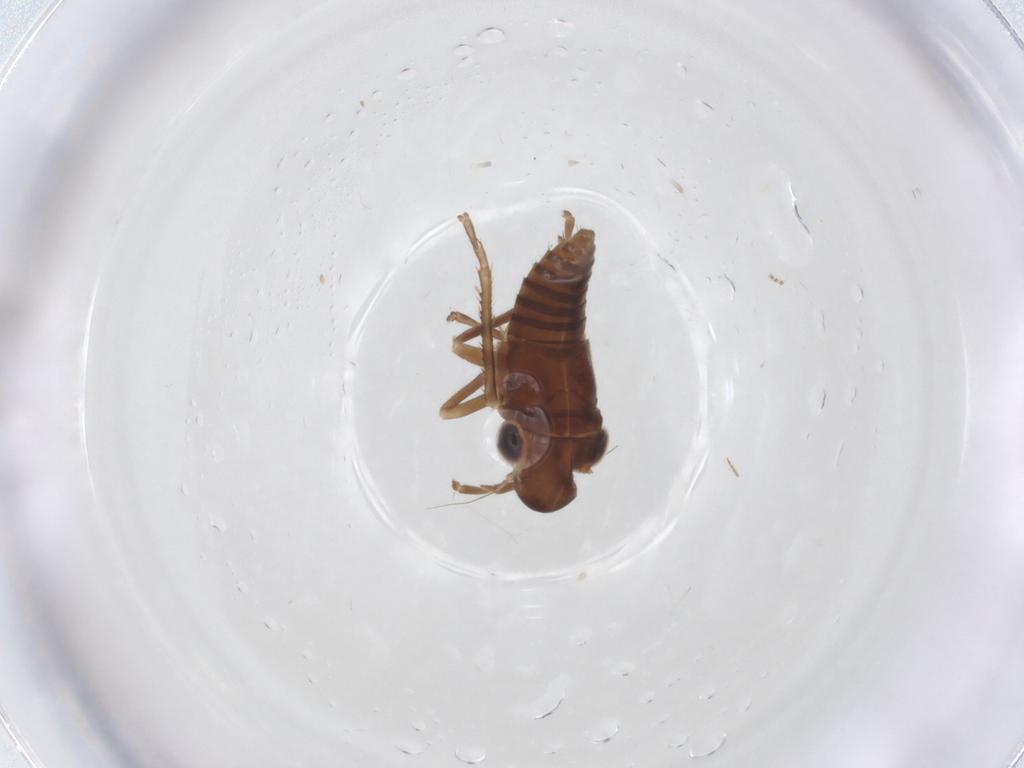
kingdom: Animalia
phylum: Arthropoda
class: Insecta
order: Hemiptera
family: Cicadellidae
